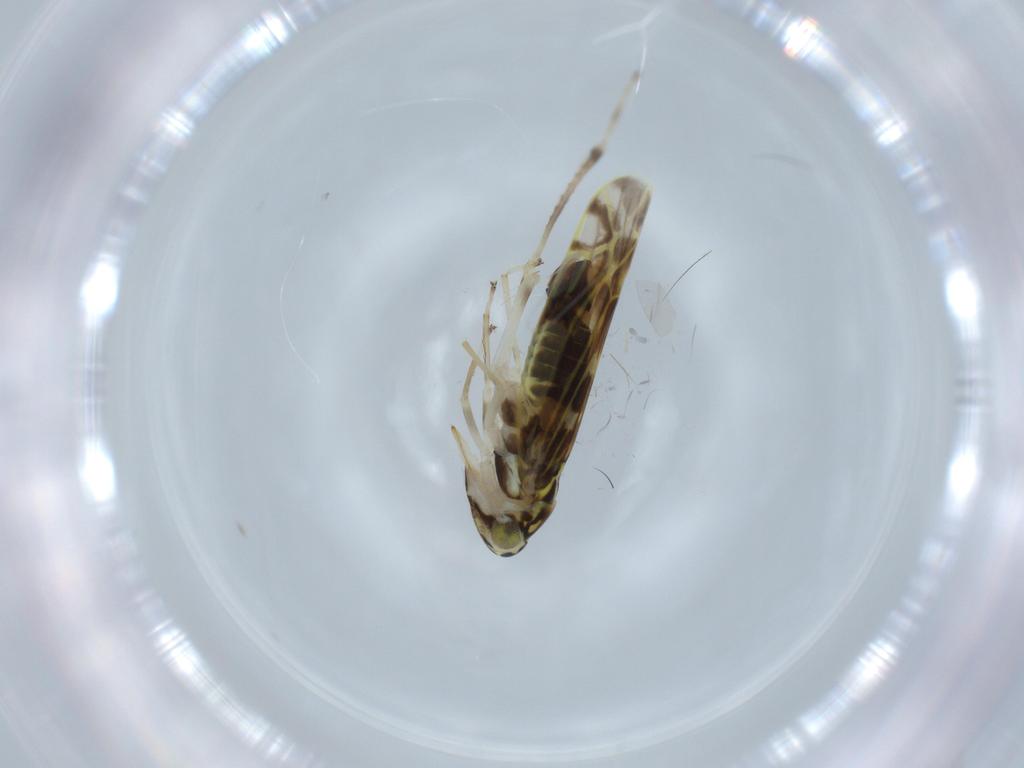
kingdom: Animalia
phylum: Arthropoda
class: Insecta
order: Hemiptera
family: Cicadellidae
